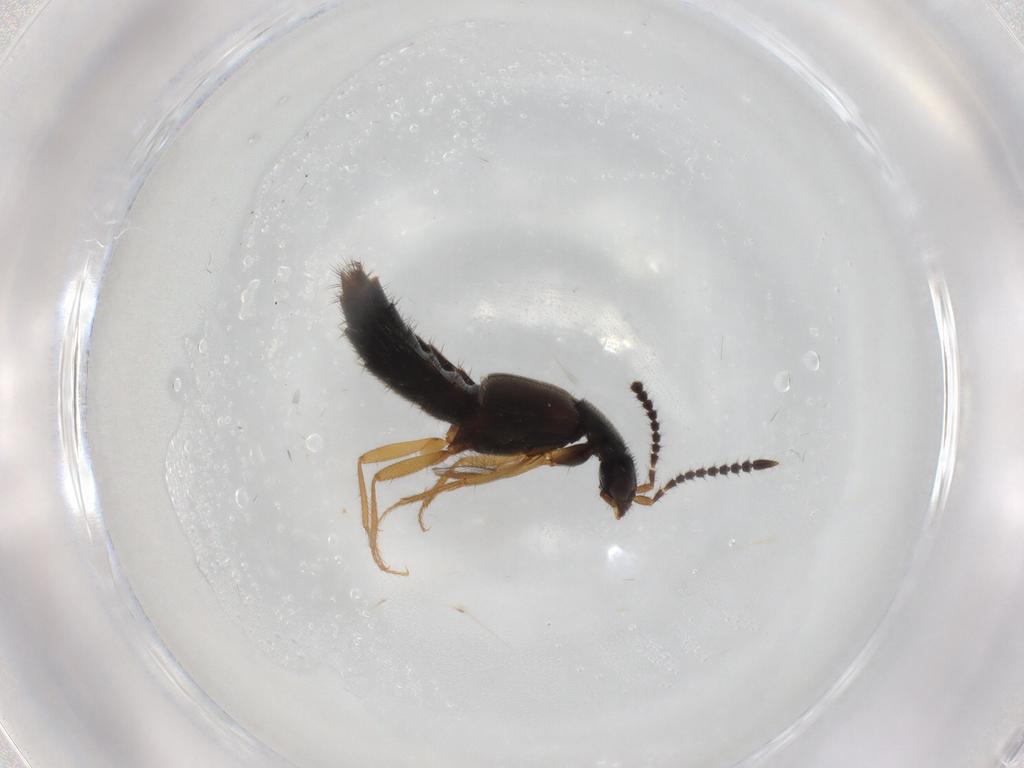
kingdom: Animalia
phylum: Arthropoda
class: Insecta
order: Coleoptera
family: Staphylinidae
